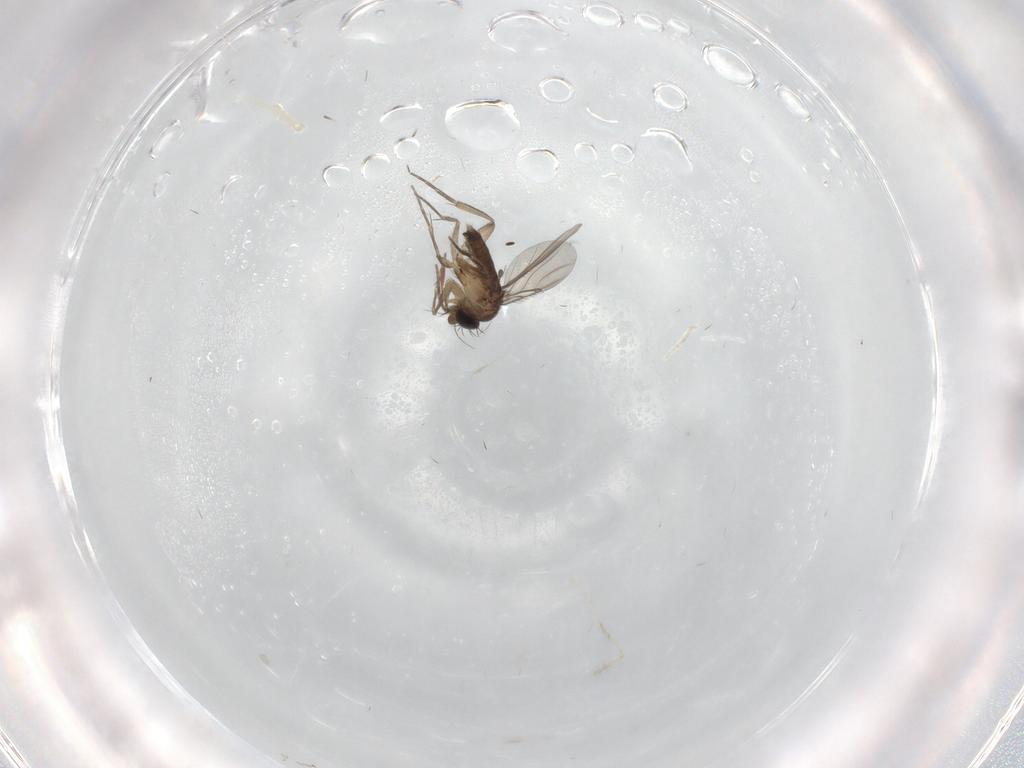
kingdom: Animalia
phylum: Arthropoda
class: Insecta
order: Diptera
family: Phoridae
